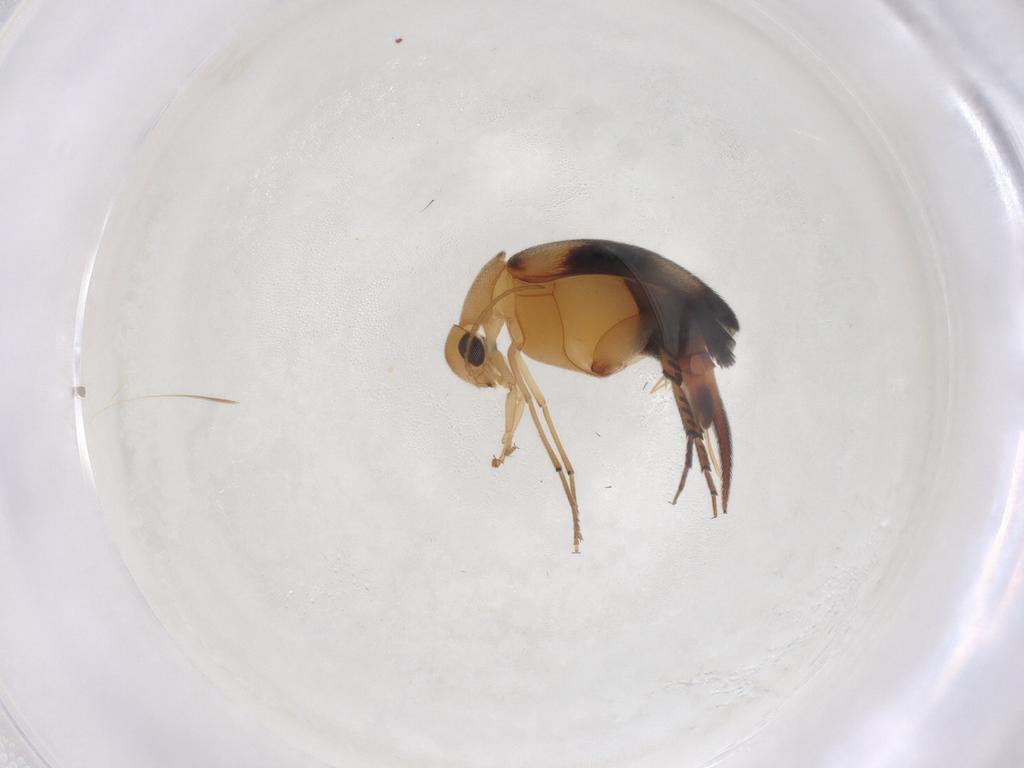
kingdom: Animalia
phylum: Arthropoda
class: Insecta
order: Coleoptera
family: Mordellidae
